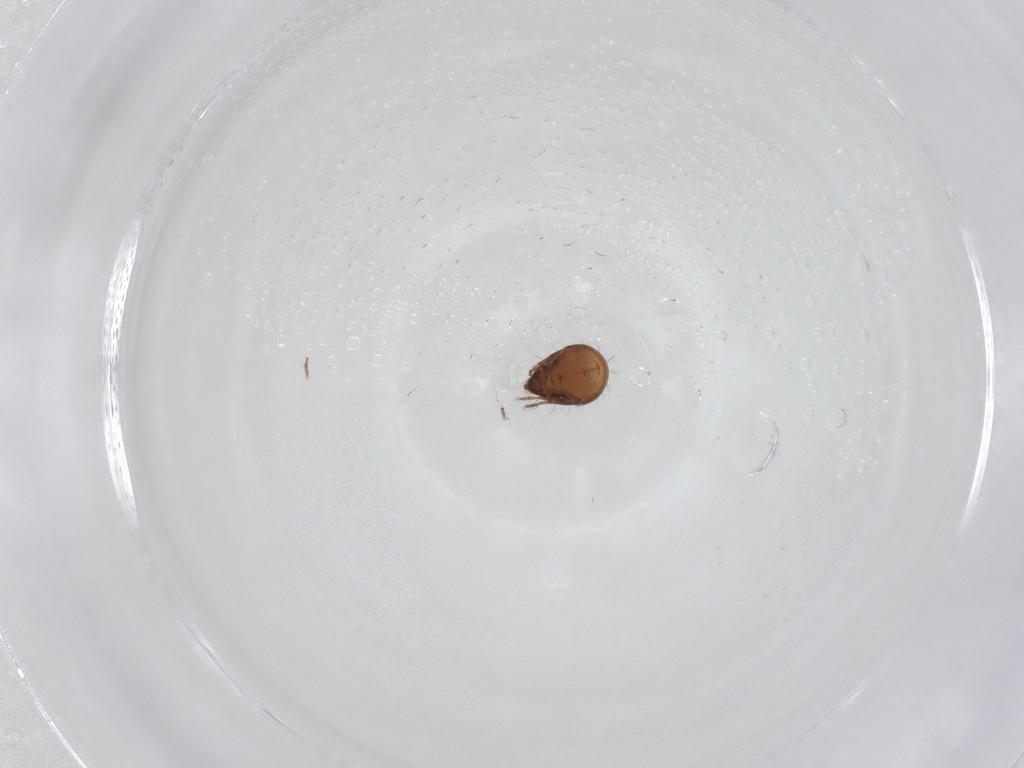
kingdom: Animalia
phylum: Arthropoda
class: Arachnida
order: Sarcoptiformes
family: Humerobatidae
